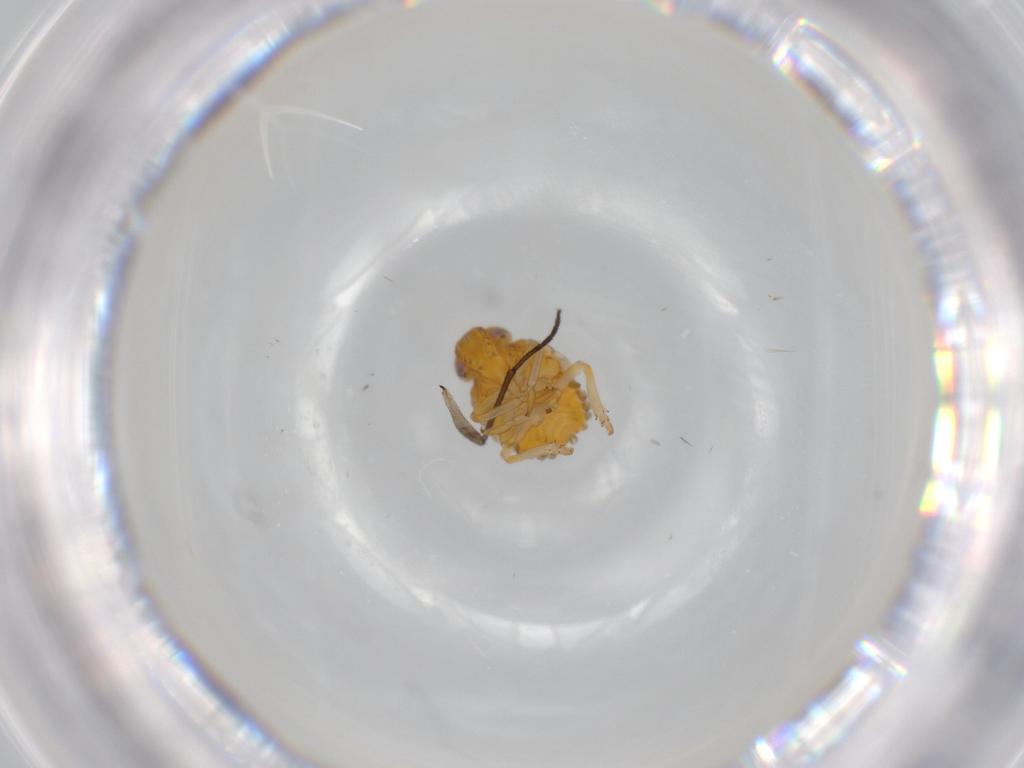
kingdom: Animalia
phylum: Arthropoda
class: Insecta
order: Hemiptera
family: Issidae
